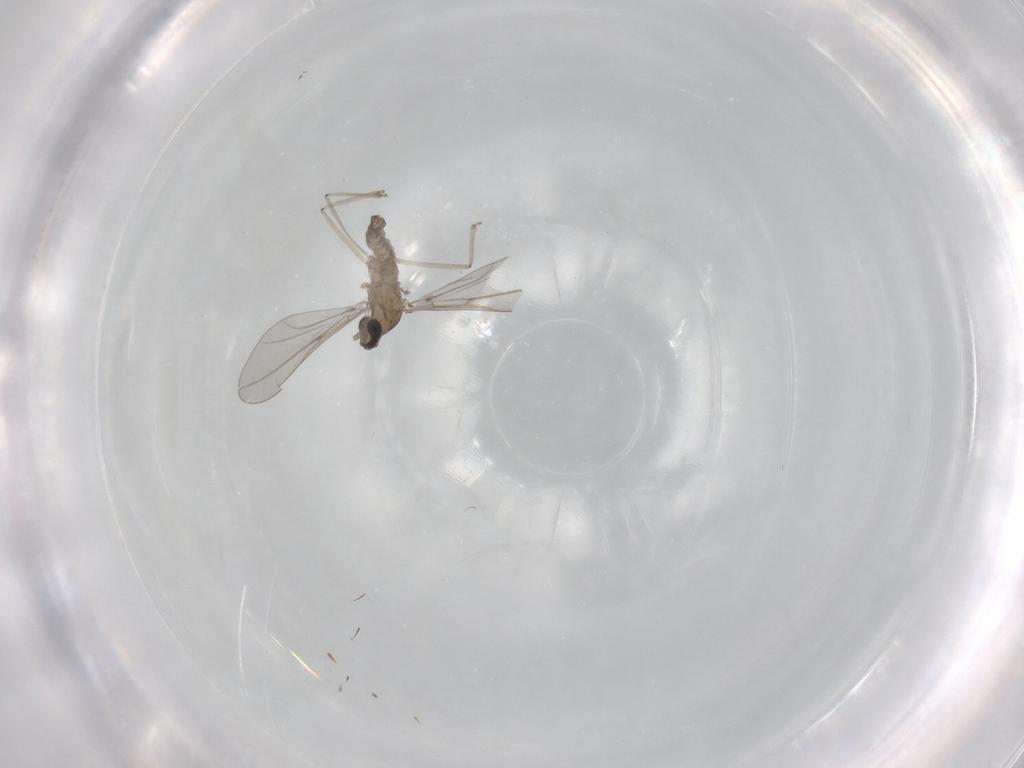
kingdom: Animalia
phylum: Arthropoda
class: Insecta
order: Diptera
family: Cecidomyiidae
